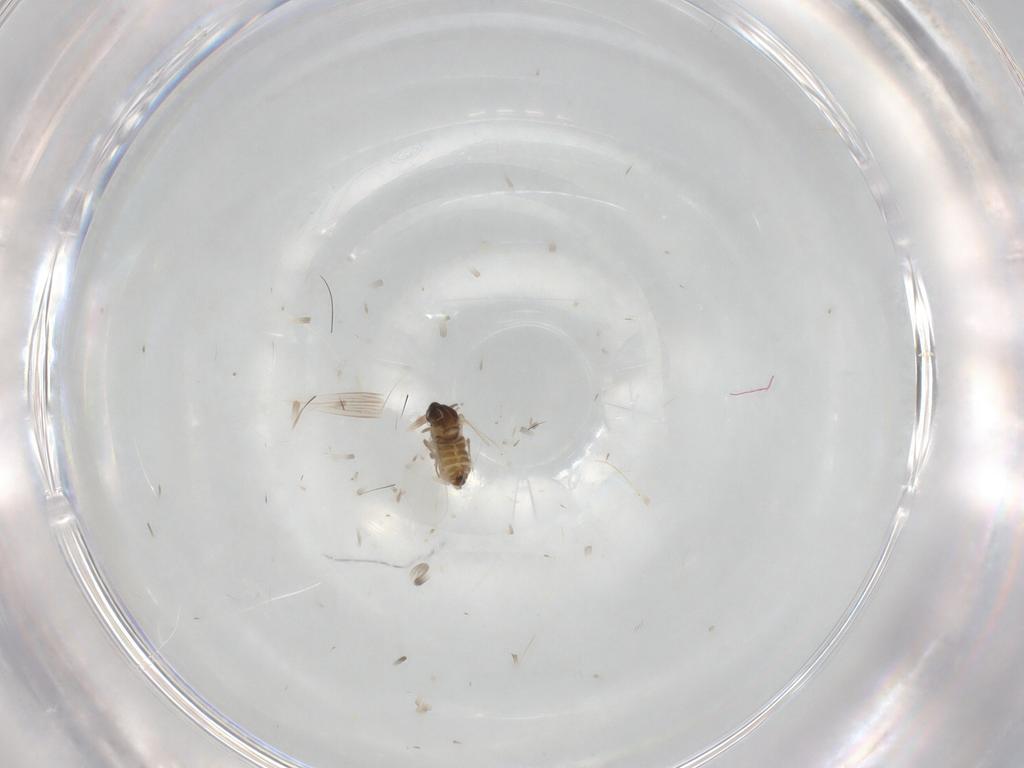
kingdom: Animalia
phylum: Arthropoda
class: Insecta
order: Diptera
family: Cecidomyiidae
